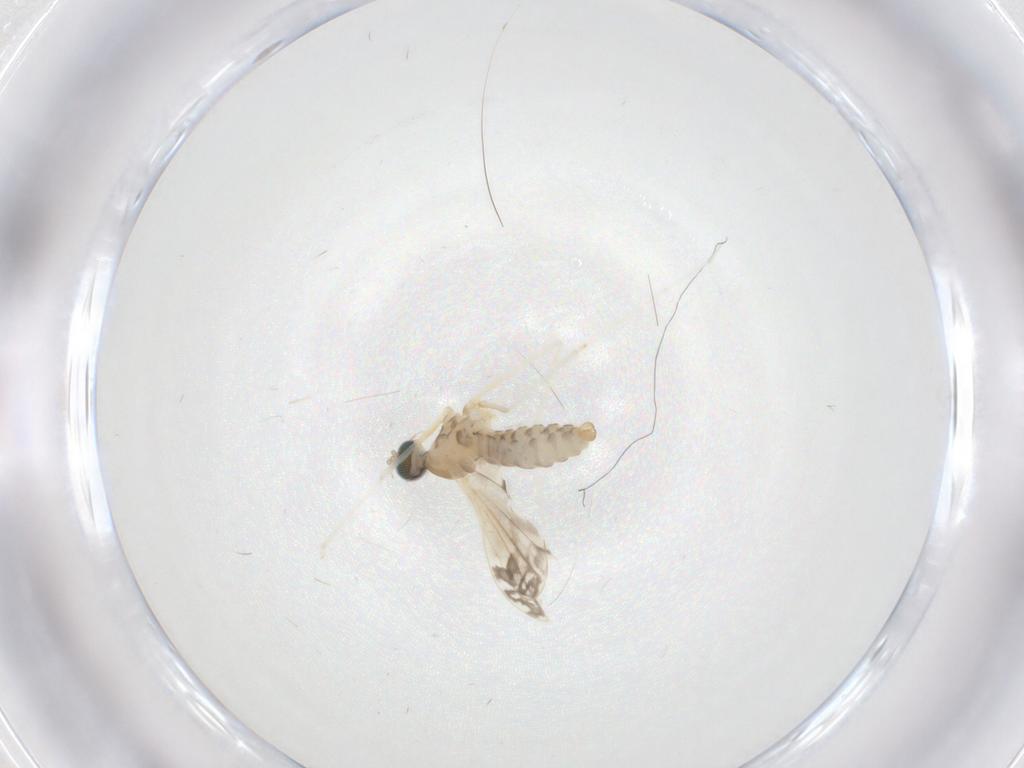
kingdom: Animalia
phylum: Arthropoda
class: Insecta
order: Diptera
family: Cecidomyiidae
